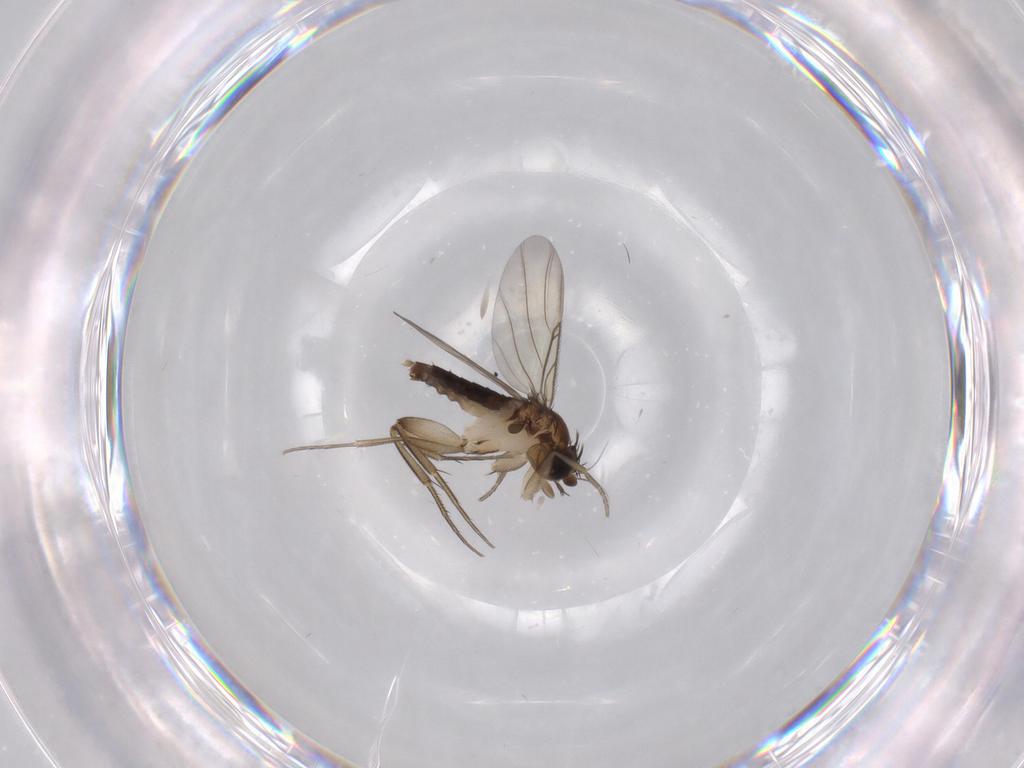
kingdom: Animalia
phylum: Arthropoda
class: Insecta
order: Diptera
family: Phoridae
